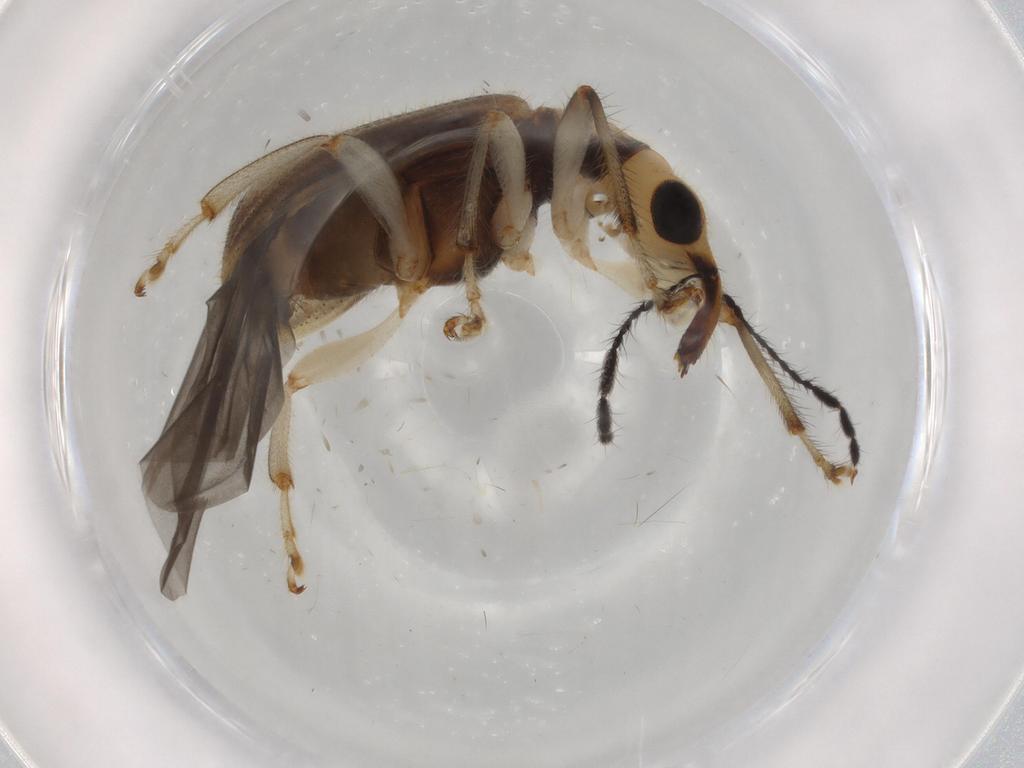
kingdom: Animalia
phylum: Arthropoda
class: Insecta
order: Coleoptera
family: Attelabidae
